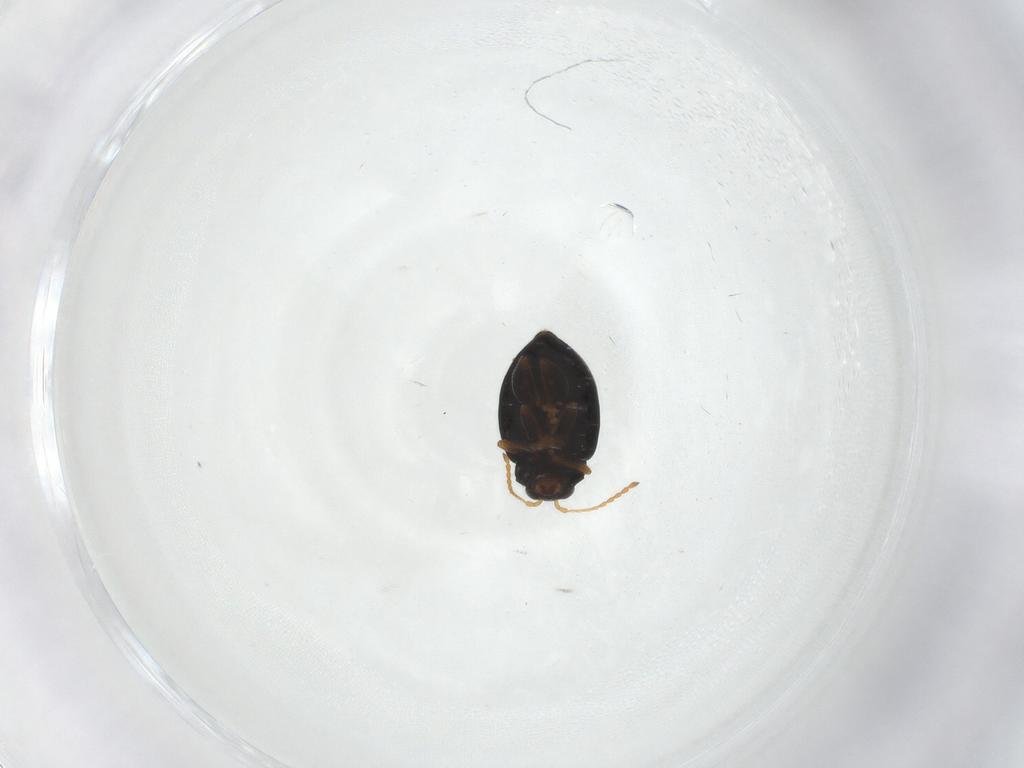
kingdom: Animalia
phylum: Arthropoda
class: Insecta
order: Coleoptera
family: Chrysomelidae
